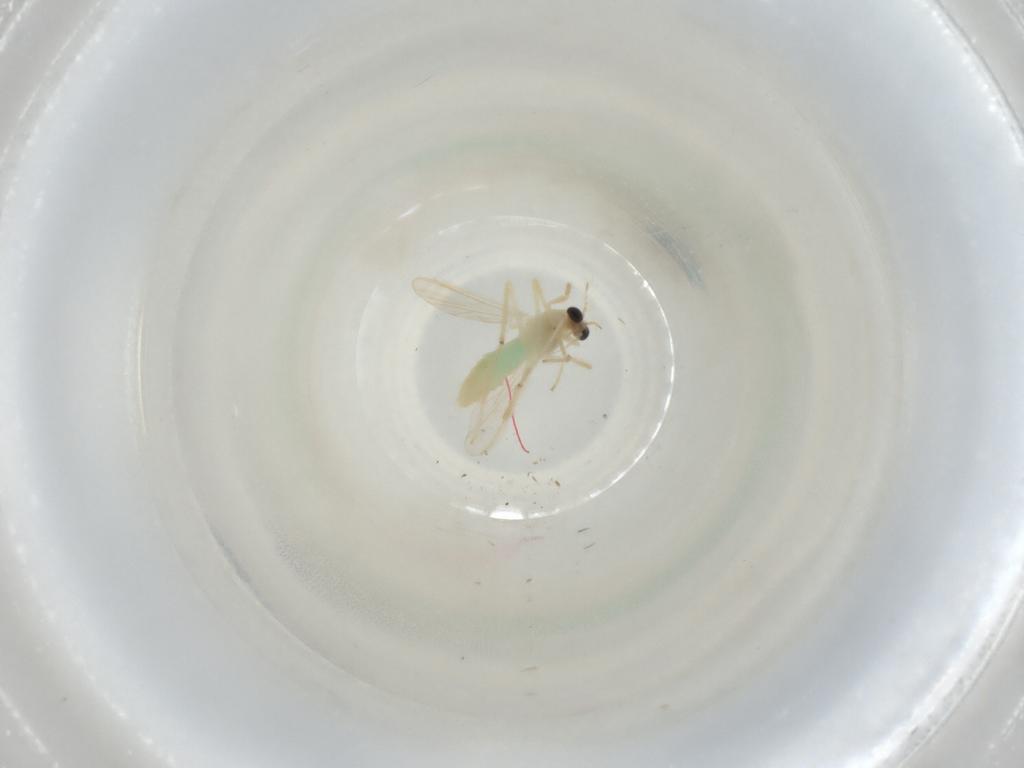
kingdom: Animalia
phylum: Arthropoda
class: Insecta
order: Diptera
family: Chironomidae
